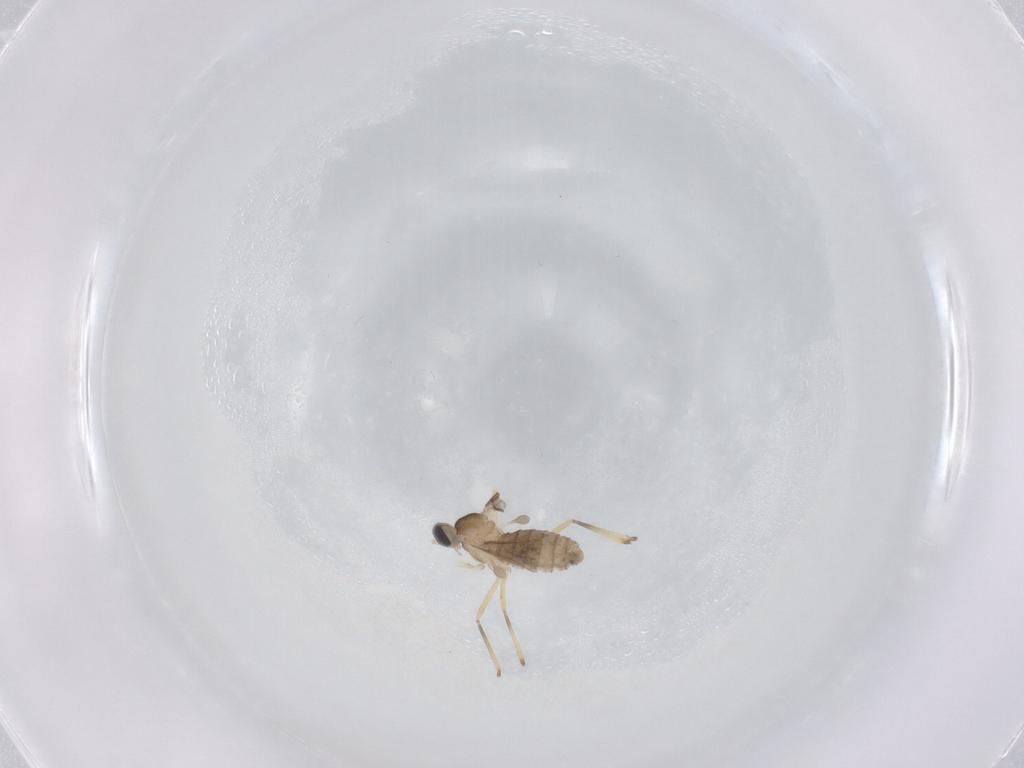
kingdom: Animalia
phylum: Arthropoda
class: Insecta
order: Diptera
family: Cecidomyiidae
